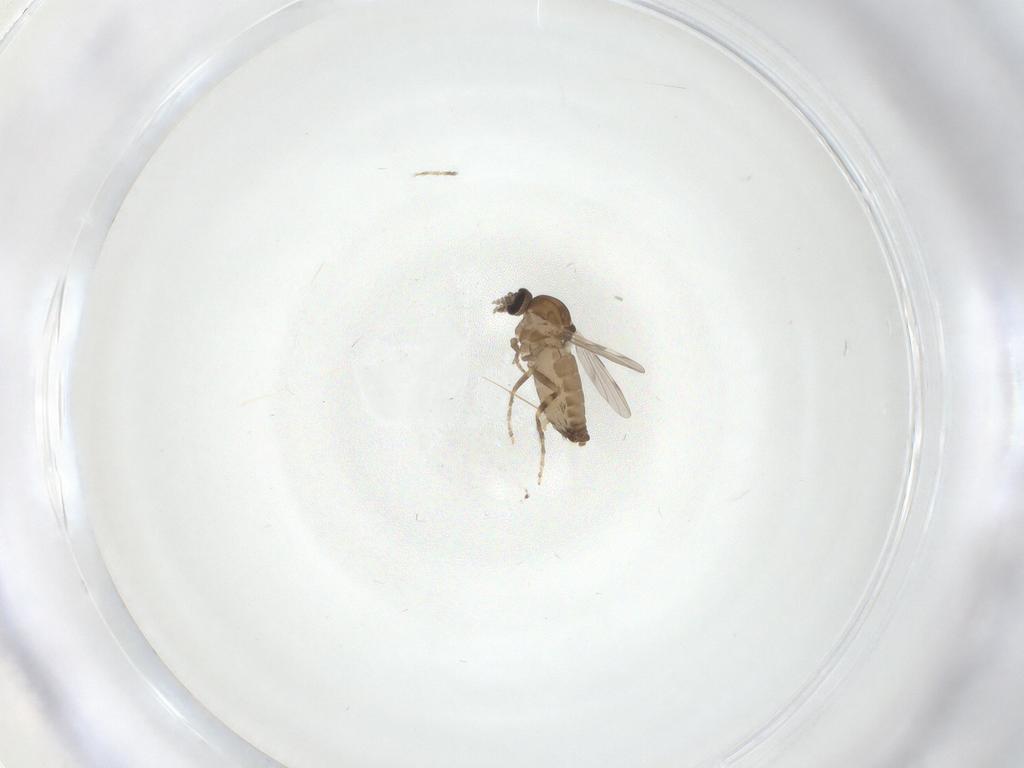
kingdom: Animalia
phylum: Arthropoda
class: Insecta
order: Diptera
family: Ceratopogonidae
